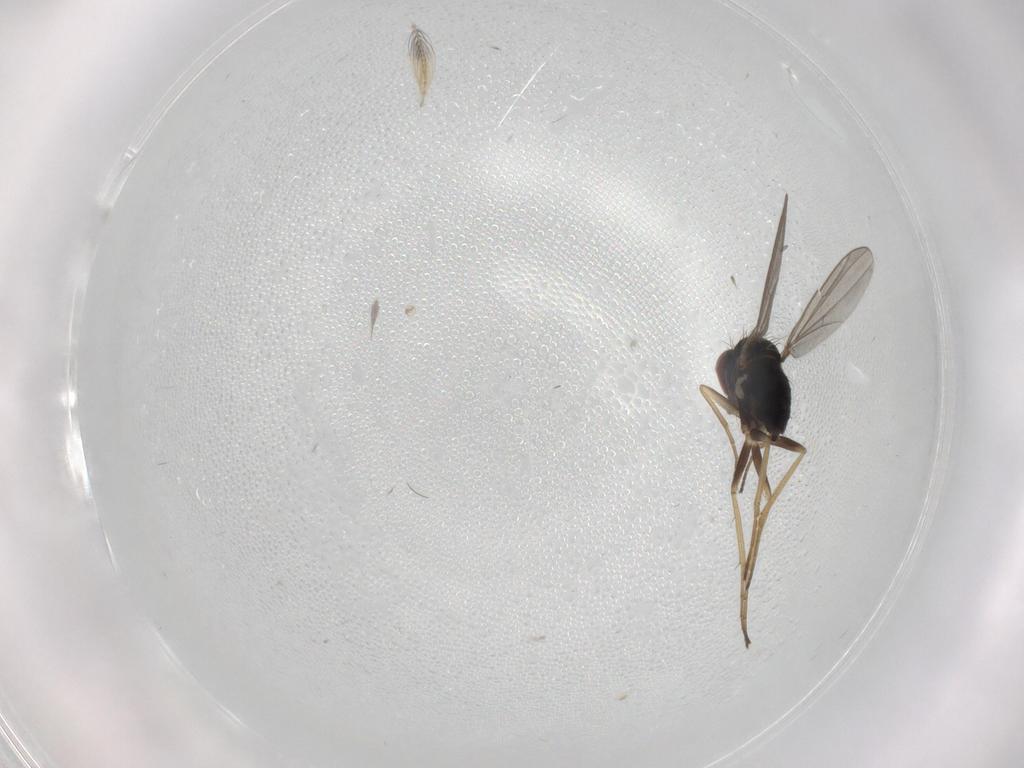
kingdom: Animalia
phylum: Arthropoda
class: Insecta
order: Diptera
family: Dolichopodidae
